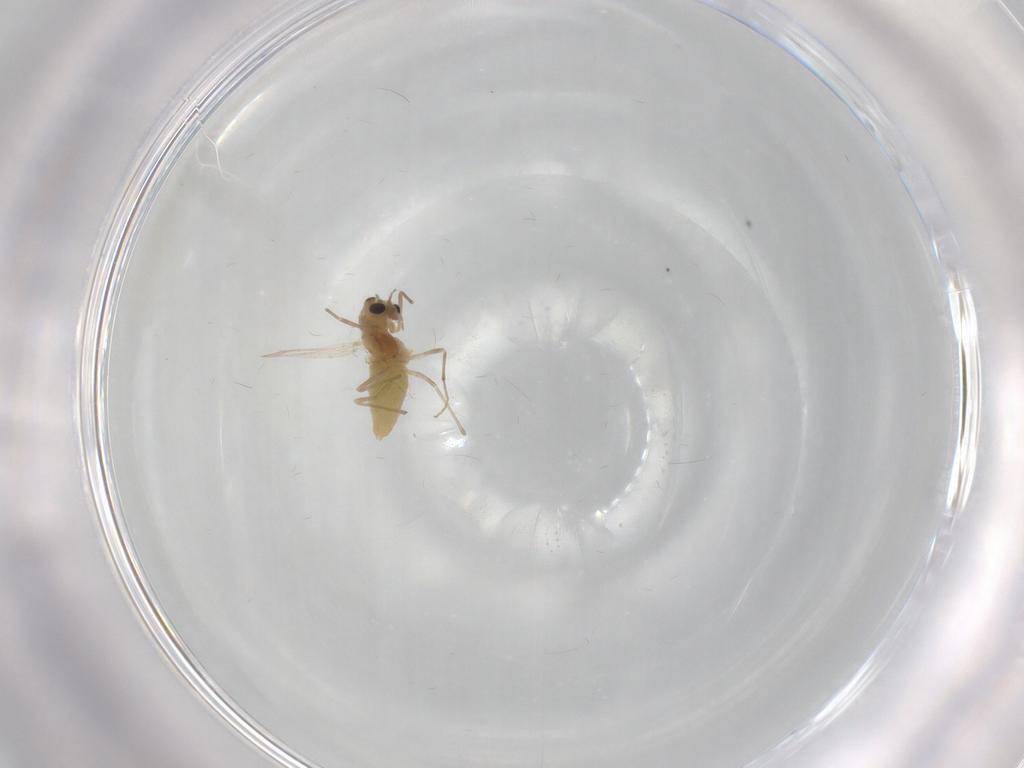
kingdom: Animalia
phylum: Arthropoda
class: Insecta
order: Diptera
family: Chironomidae
